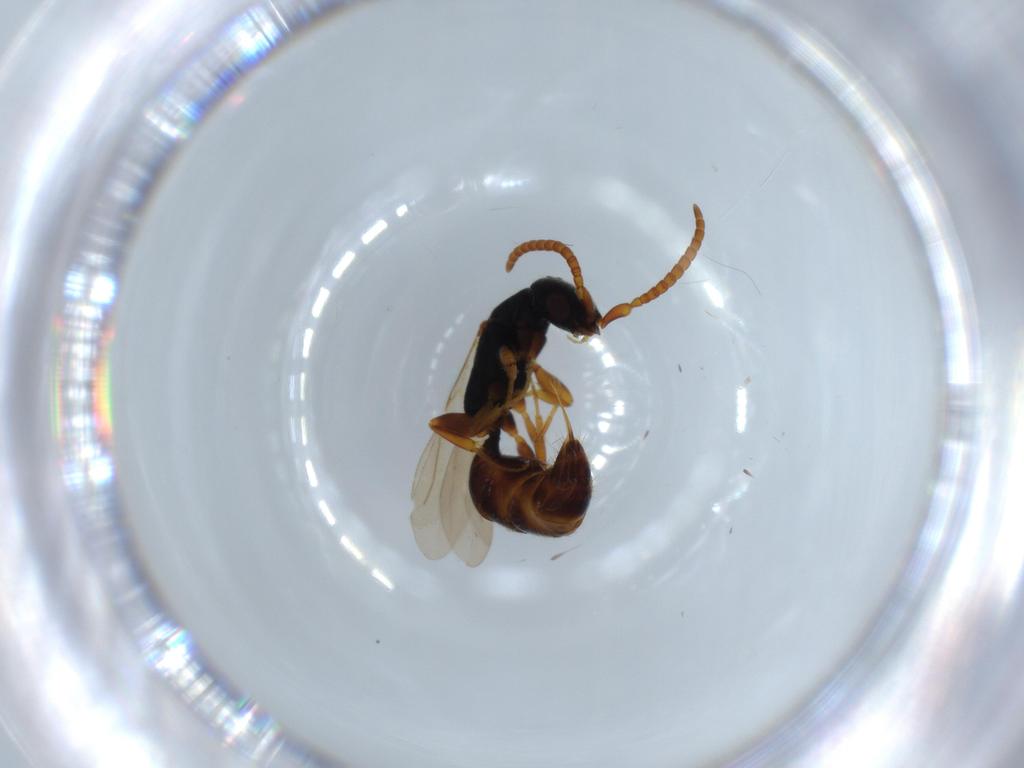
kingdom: Animalia
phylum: Arthropoda
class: Insecta
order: Hymenoptera
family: Bethylidae
